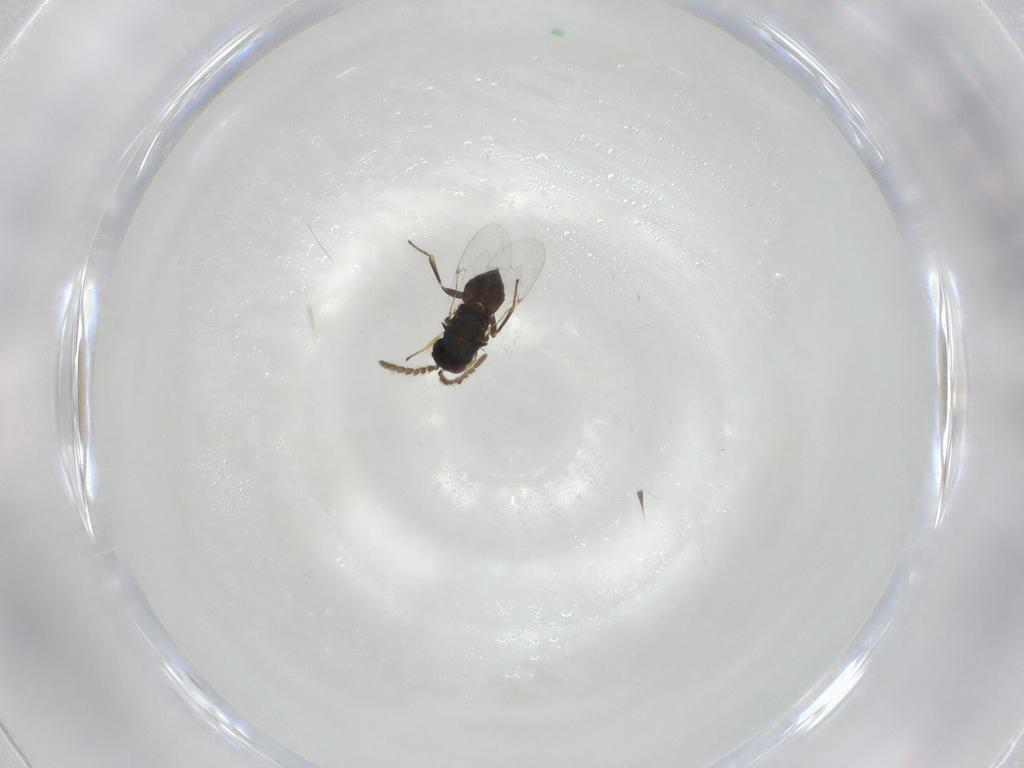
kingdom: Animalia
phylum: Arthropoda
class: Insecta
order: Hymenoptera
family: Encyrtidae
